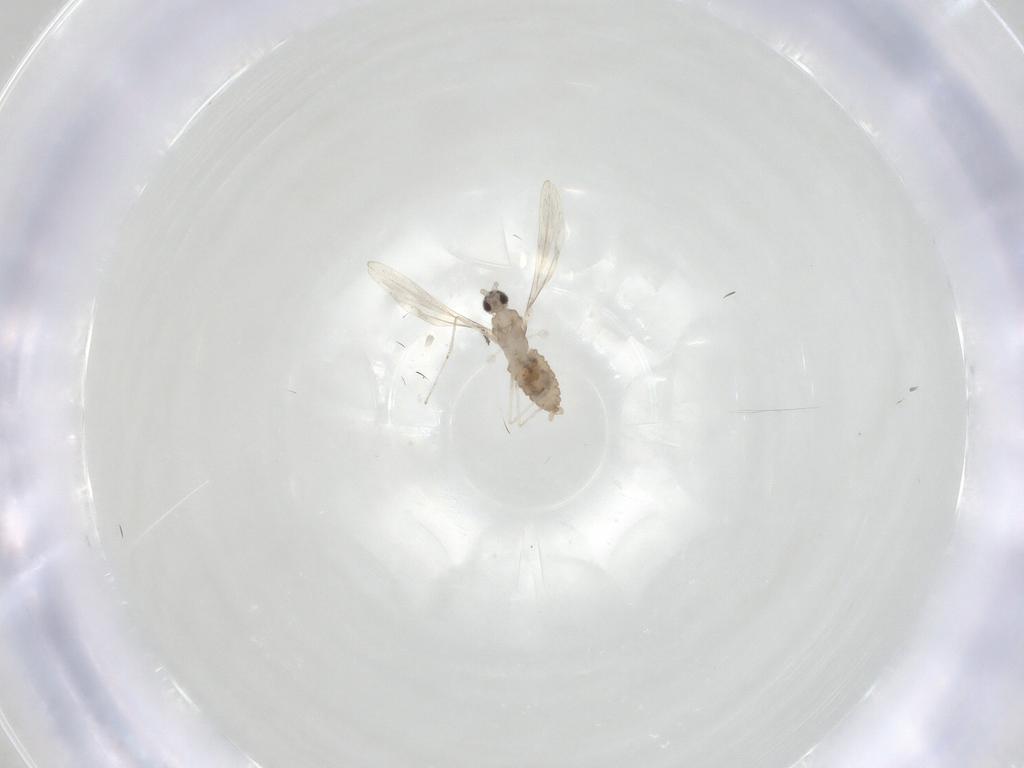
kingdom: Animalia
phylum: Arthropoda
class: Insecta
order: Diptera
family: Cecidomyiidae
